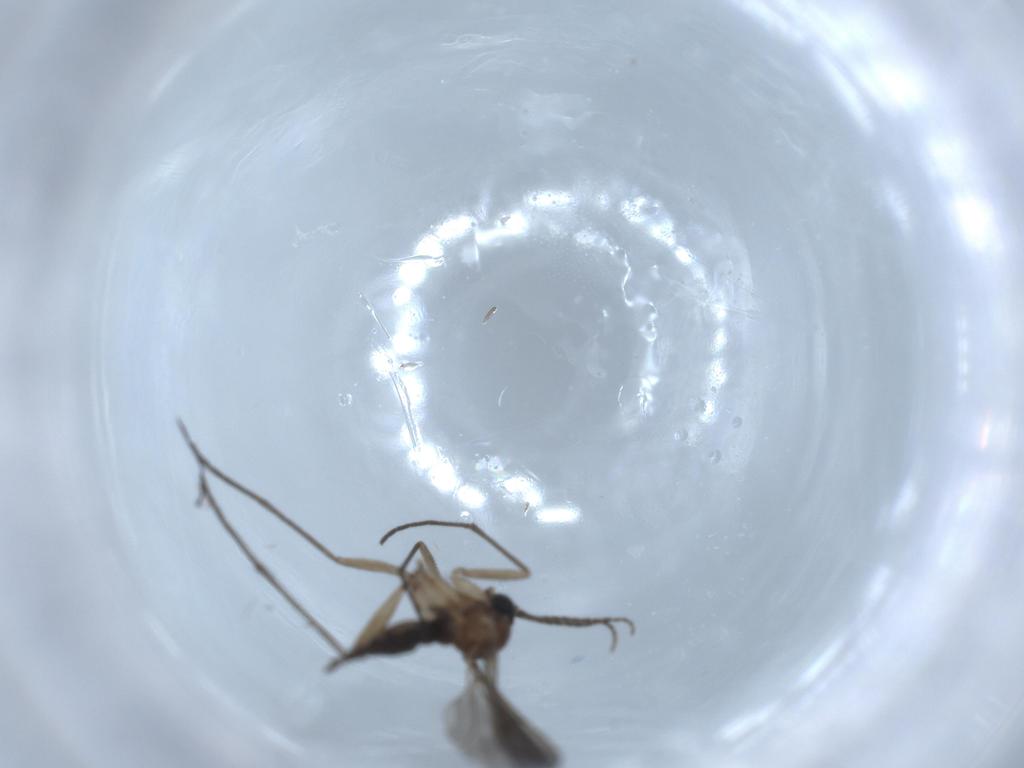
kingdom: Animalia
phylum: Arthropoda
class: Insecta
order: Diptera
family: Sciaridae
